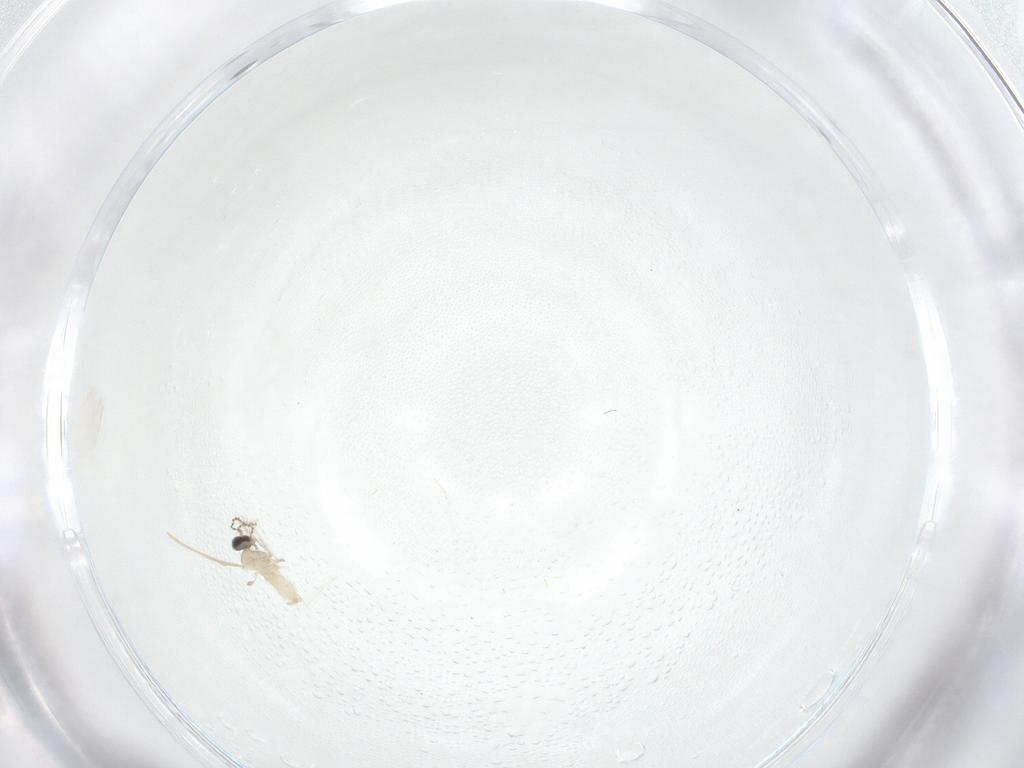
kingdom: Animalia
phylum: Arthropoda
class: Insecta
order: Diptera
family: Cecidomyiidae
